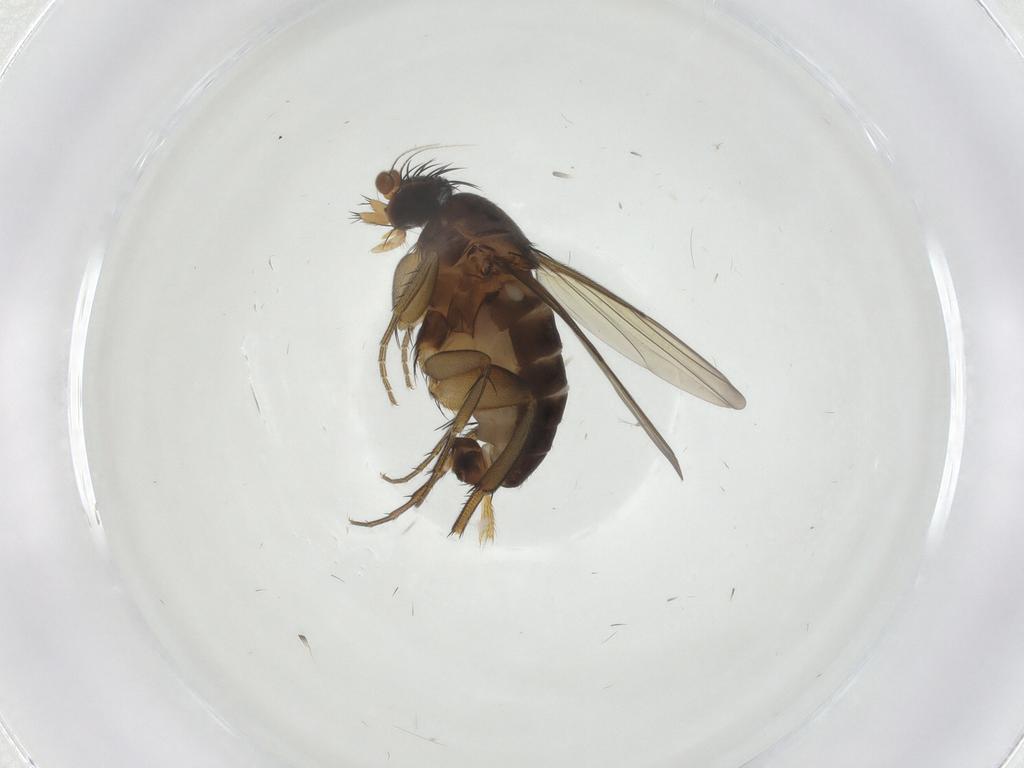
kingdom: Animalia
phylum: Arthropoda
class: Insecta
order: Diptera
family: Phoridae
